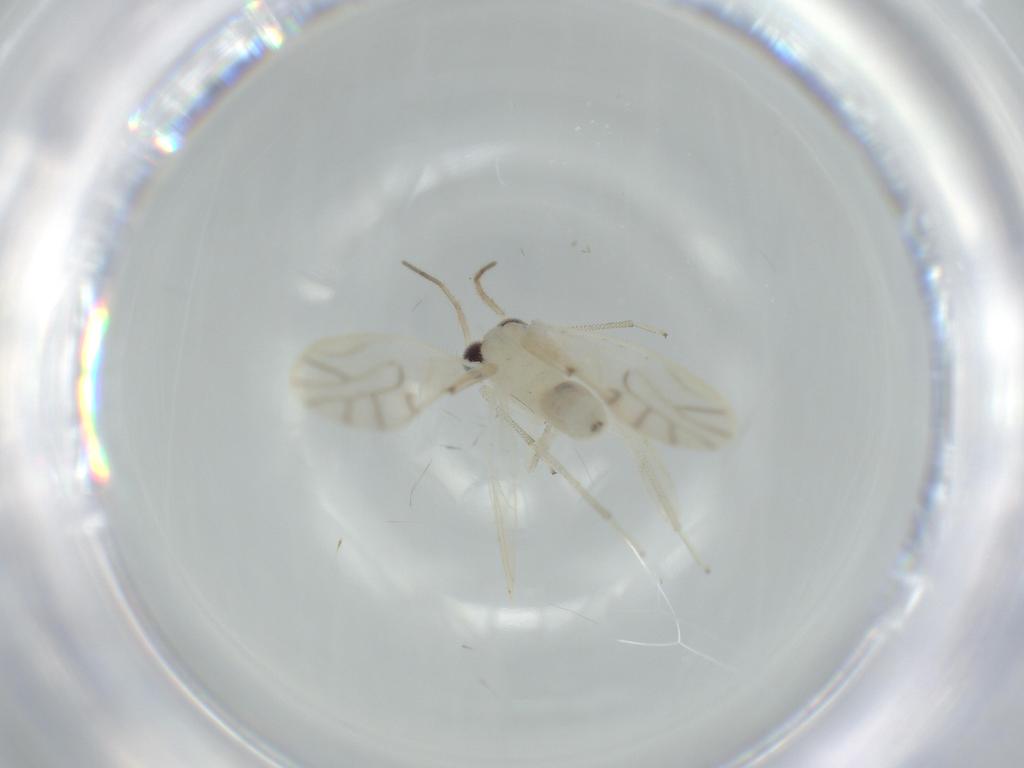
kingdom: Animalia
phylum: Arthropoda
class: Insecta
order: Psocodea
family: Caeciliusidae
